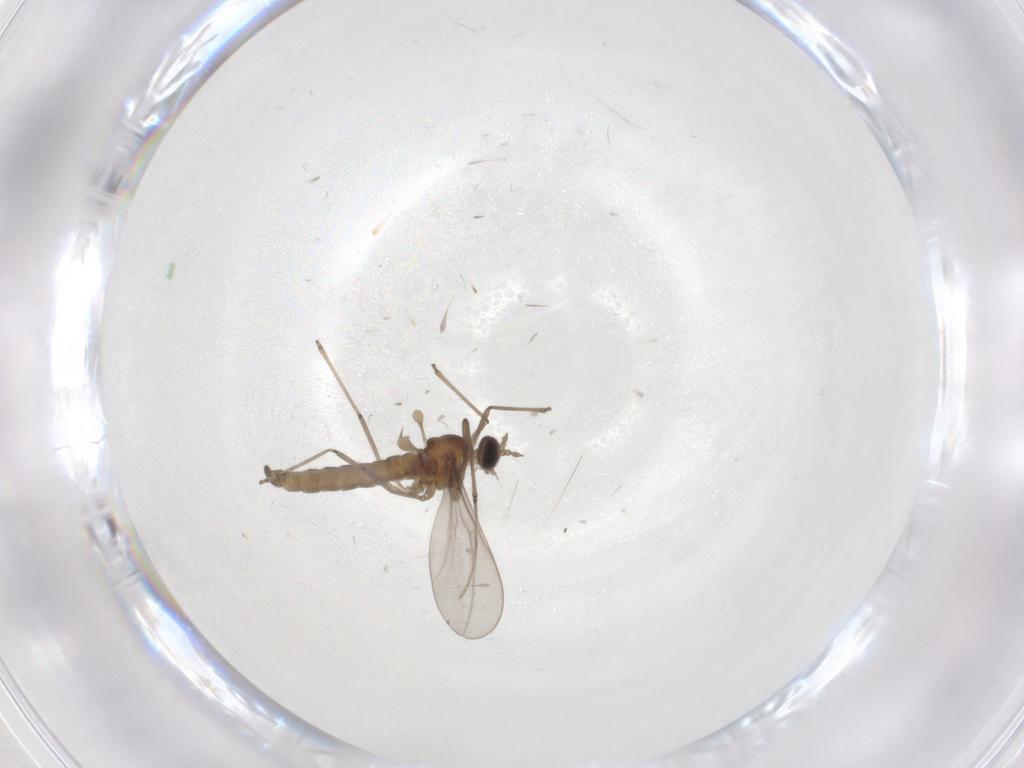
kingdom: Animalia
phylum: Arthropoda
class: Insecta
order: Diptera
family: Cecidomyiidae
